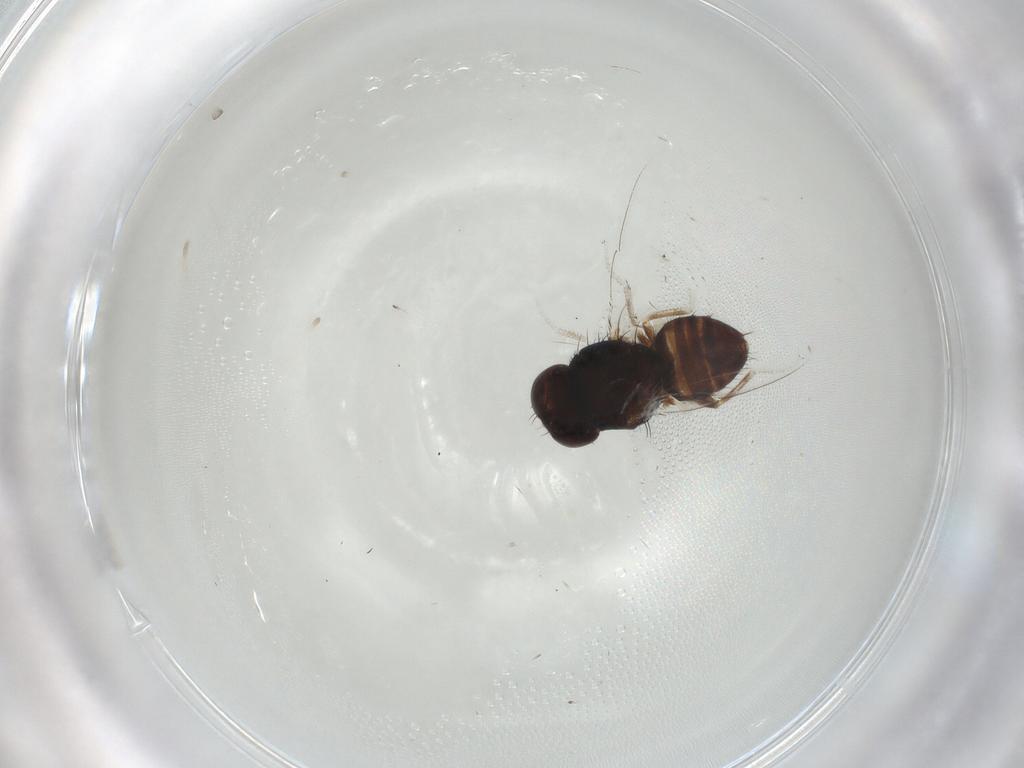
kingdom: Animalia
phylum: Arthropoda
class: Insecta
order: Diptera
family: Milichiidae
